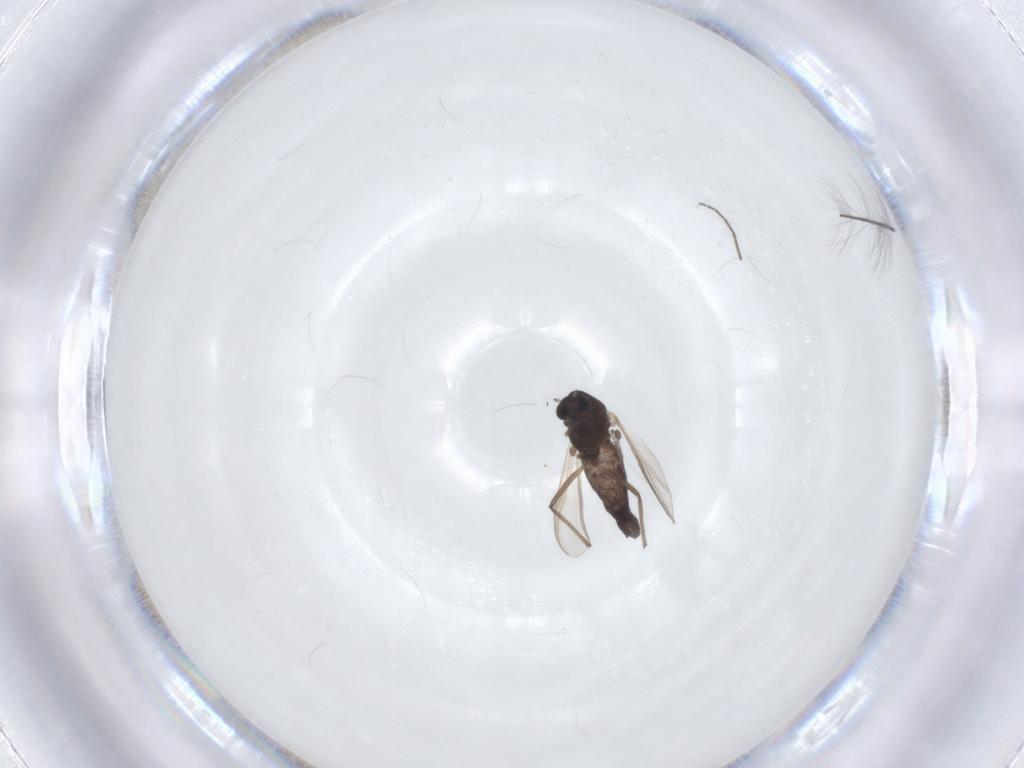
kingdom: Animalia
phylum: Arthropoda
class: Insecta
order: Diptera
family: Chironomidae
